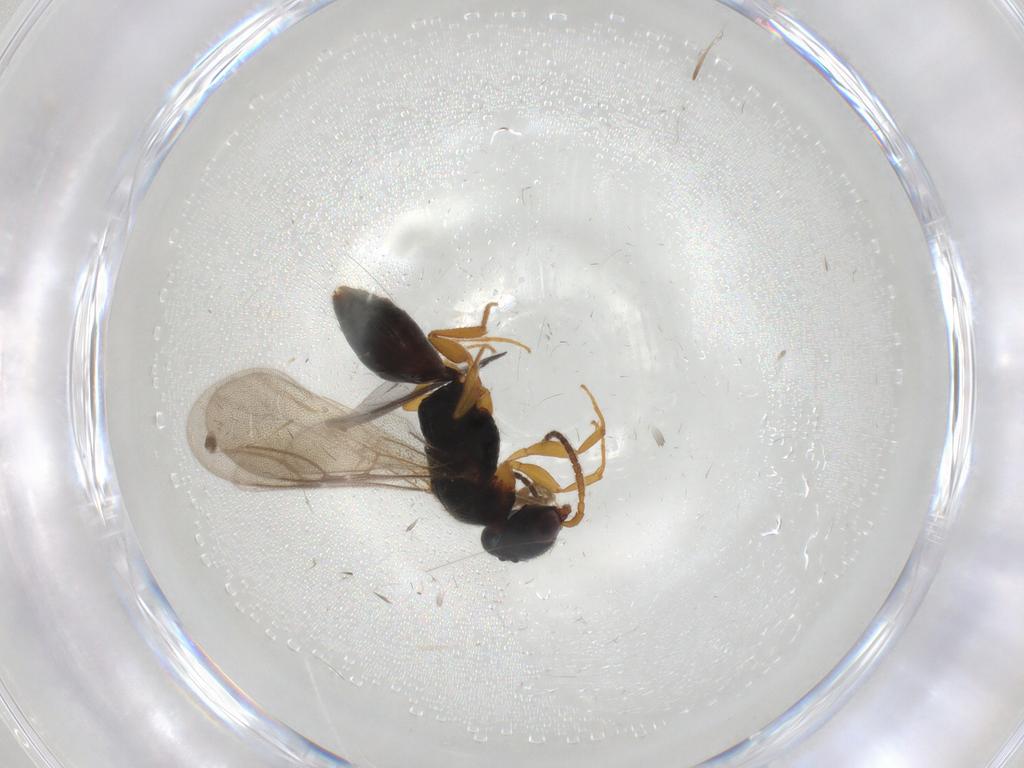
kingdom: Animalia
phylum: Arthropoda
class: Insecta
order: Hymenoptera
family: Bethylidae
